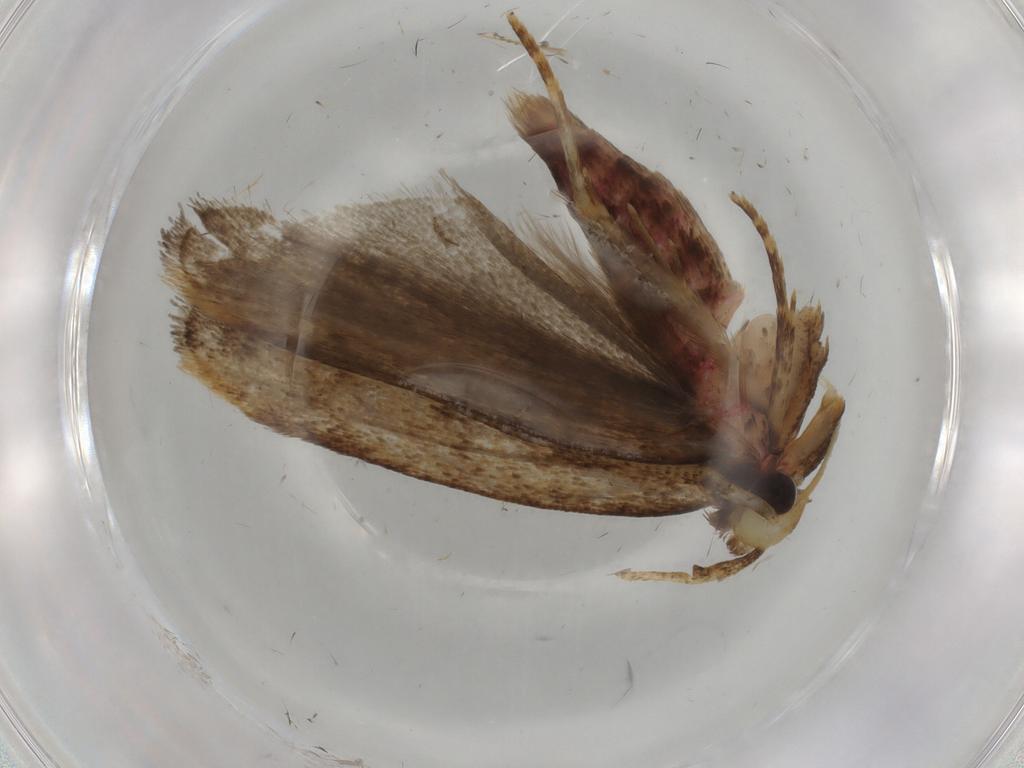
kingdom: Animalia
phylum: Arthropoda
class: Insecta
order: Lepidoptera
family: Autostichidae
